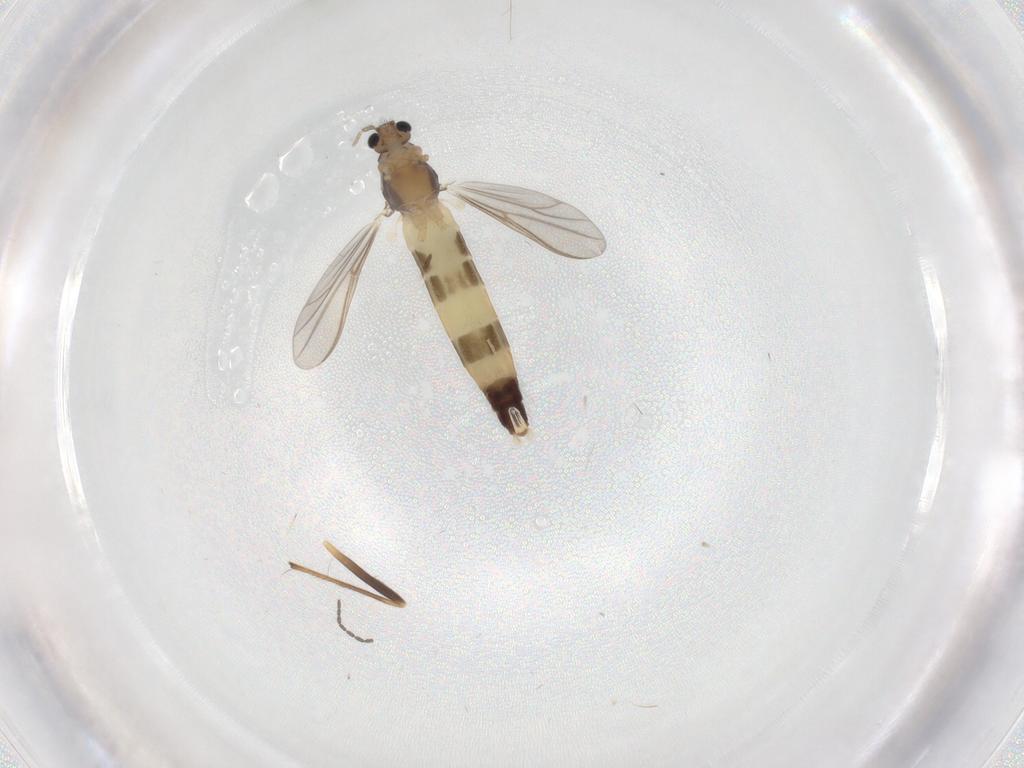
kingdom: Animalia
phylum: Arthropoda
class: Insecta
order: Diptera
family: Chironomidae
